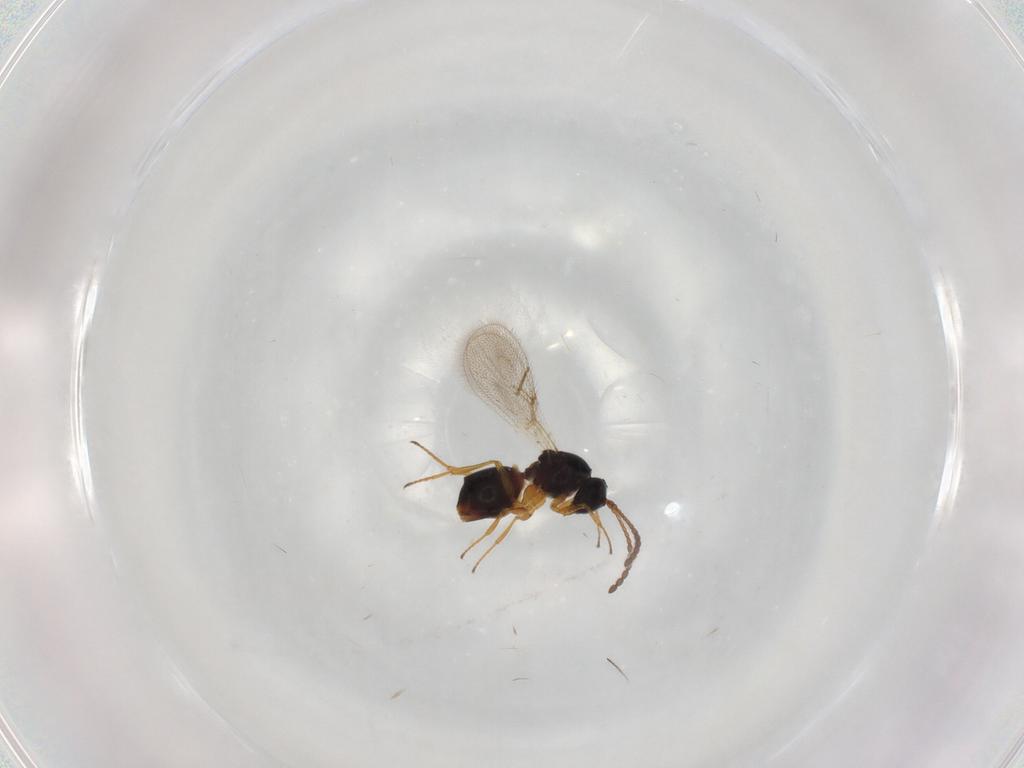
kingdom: Animalia
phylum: Arthropoda
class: Insecta
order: Hymenoptera
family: Figitidae
